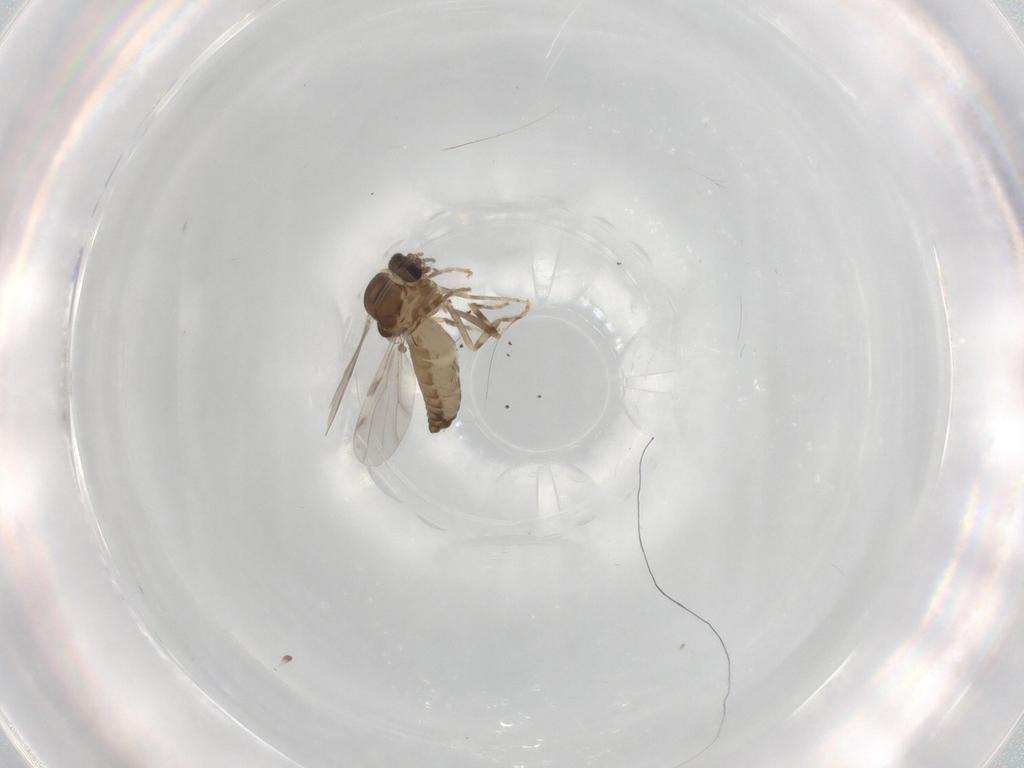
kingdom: Animalia
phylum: Arthropoda
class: Insecta
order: Diptera
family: Ceratopogonidae
